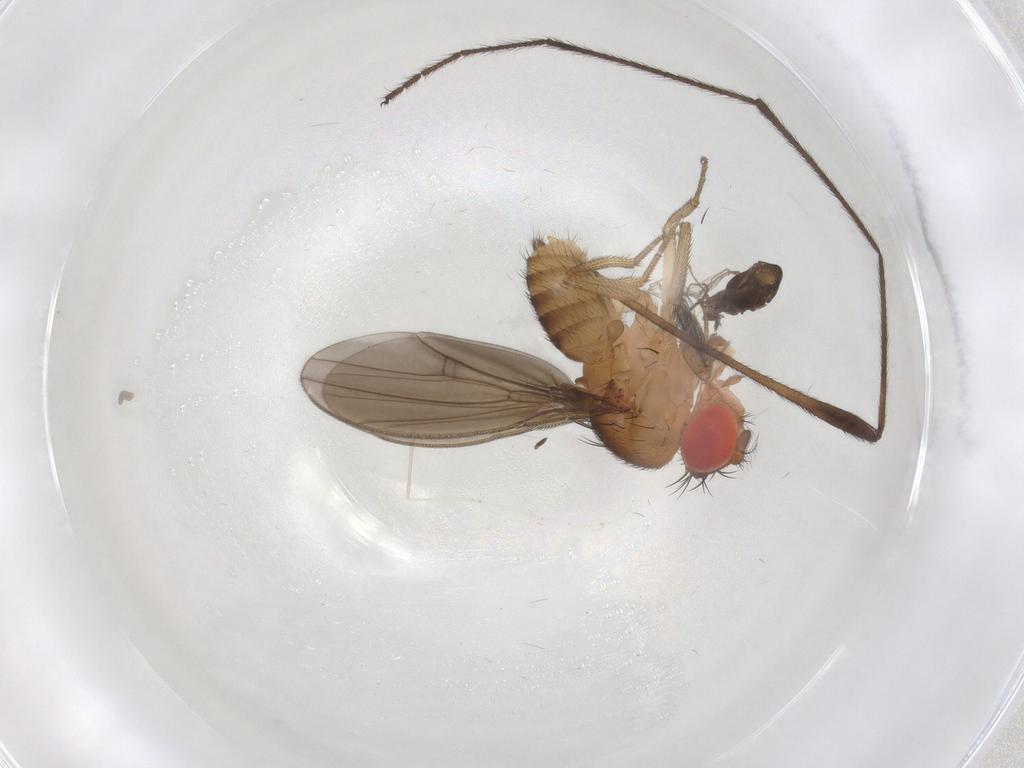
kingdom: Animalia
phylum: Arthropoda
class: Insecta
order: Diptera
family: Drosophilidae
